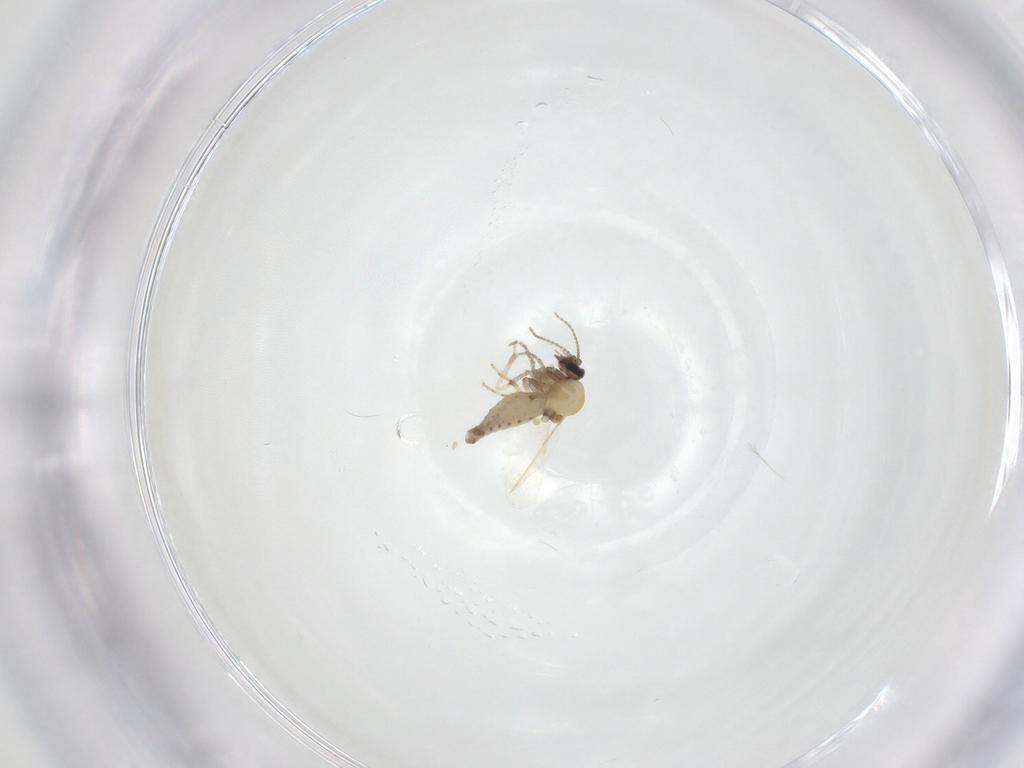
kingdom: Animalia
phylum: Arthropoda
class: Insecta
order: Diptera
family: Ceratopogonidae
